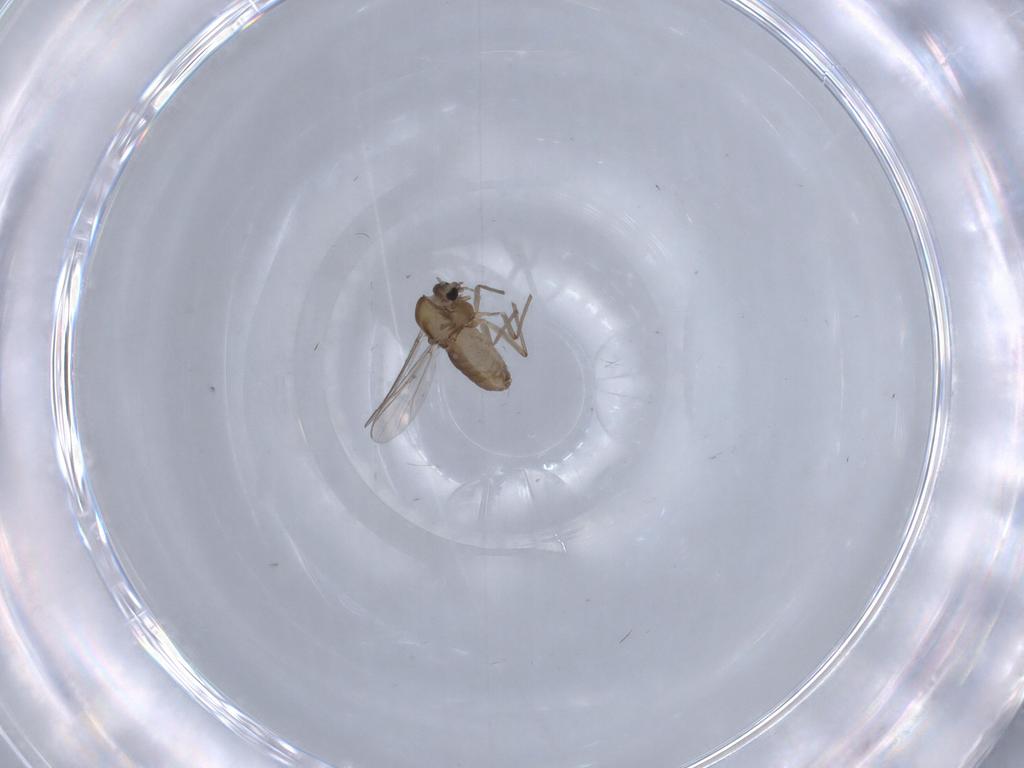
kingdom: Animalia
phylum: Arthropoda
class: Insecta
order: Diptera
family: Chironomidae
